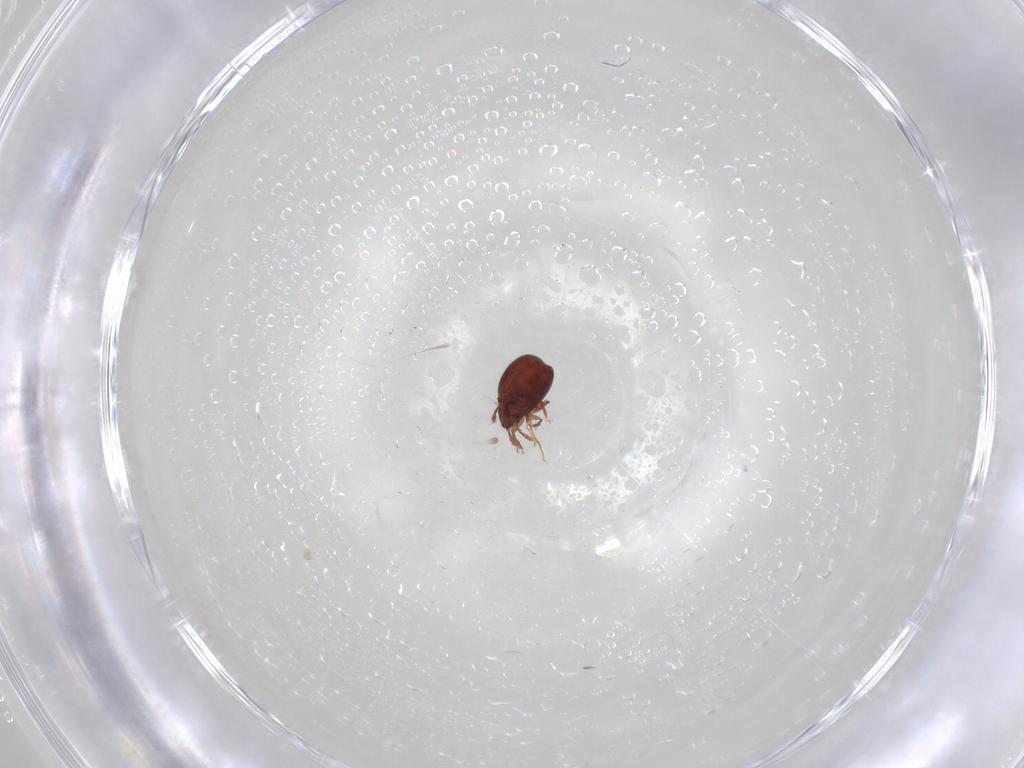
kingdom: Animalia
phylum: Arthropoda
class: Arachnida
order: Sarcoptiformes
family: Humerobatidae
